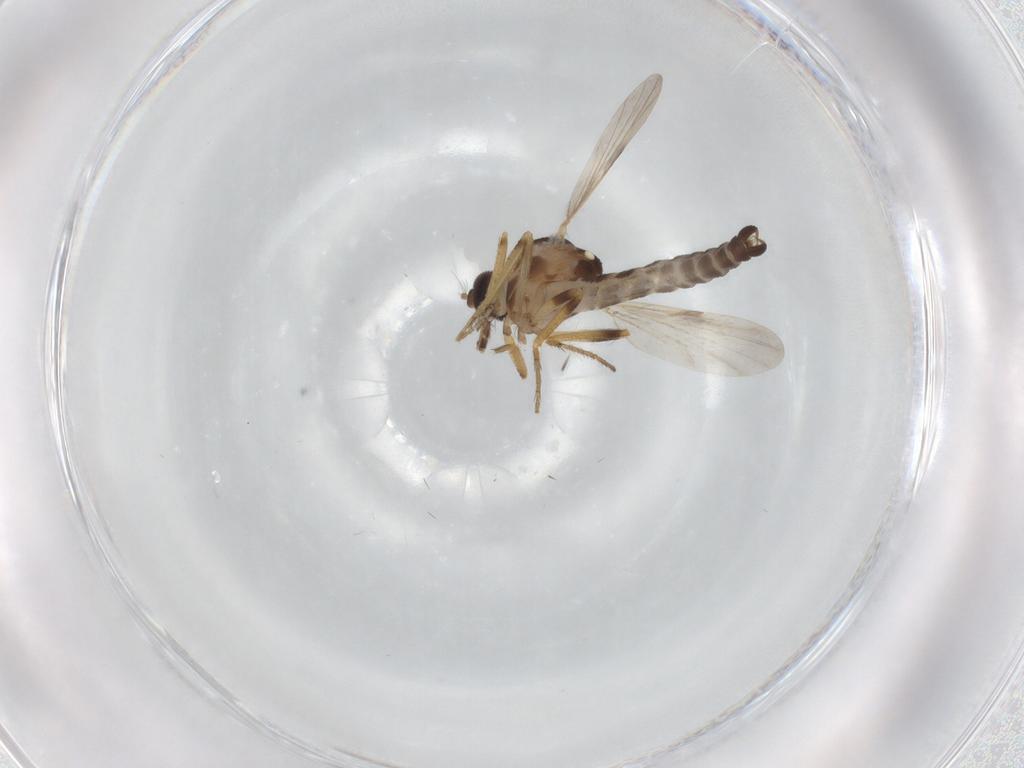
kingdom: Animalia
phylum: Arthropoda
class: Insecta
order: Diptera
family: Ceratopogonidae
